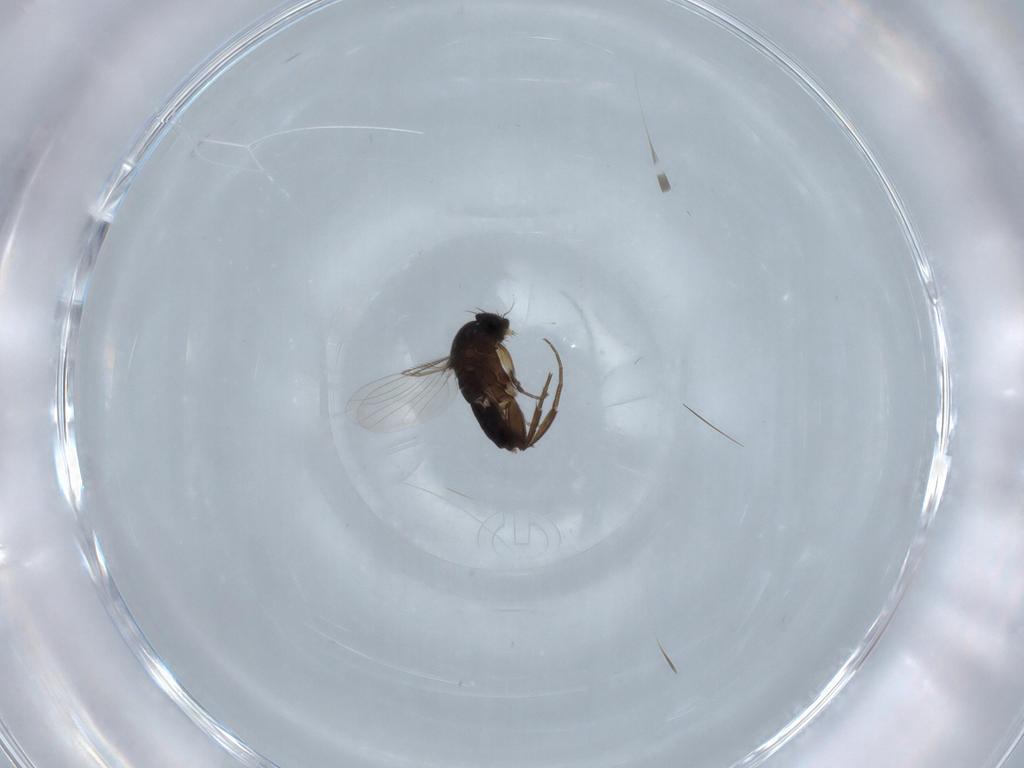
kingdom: Animalia
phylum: Arthropoda
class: Insecta
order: Diptera
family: Phoridae
